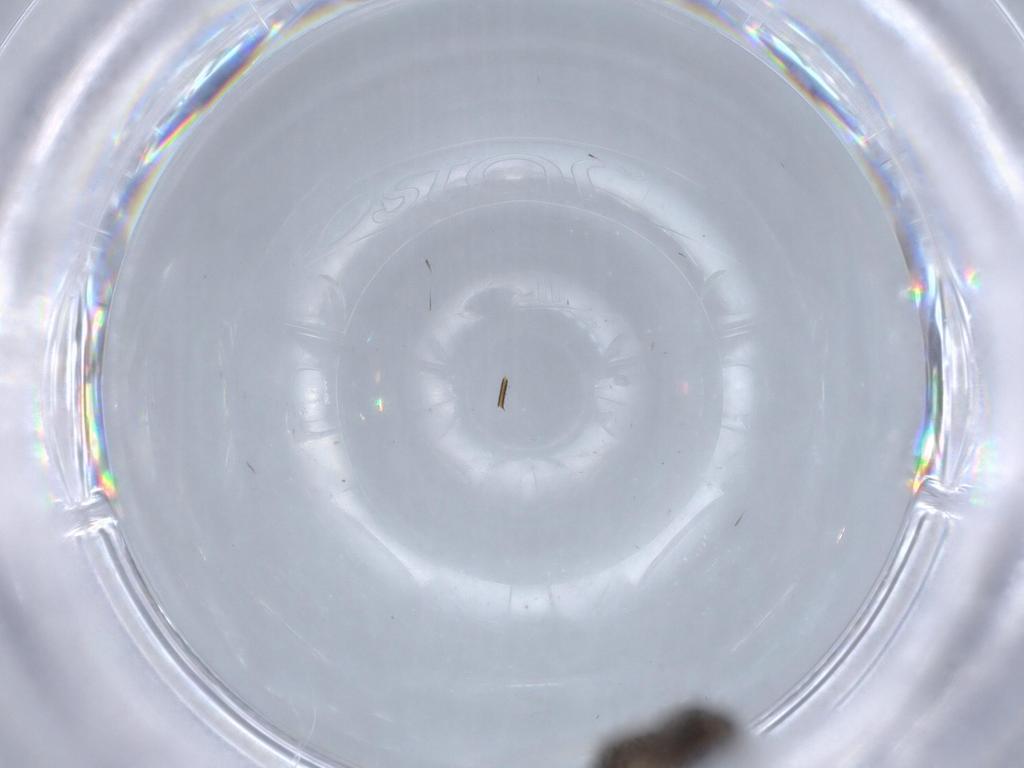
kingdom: Animalia
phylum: Arthropoda
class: Insecta
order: Diptera
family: Psychodidae
